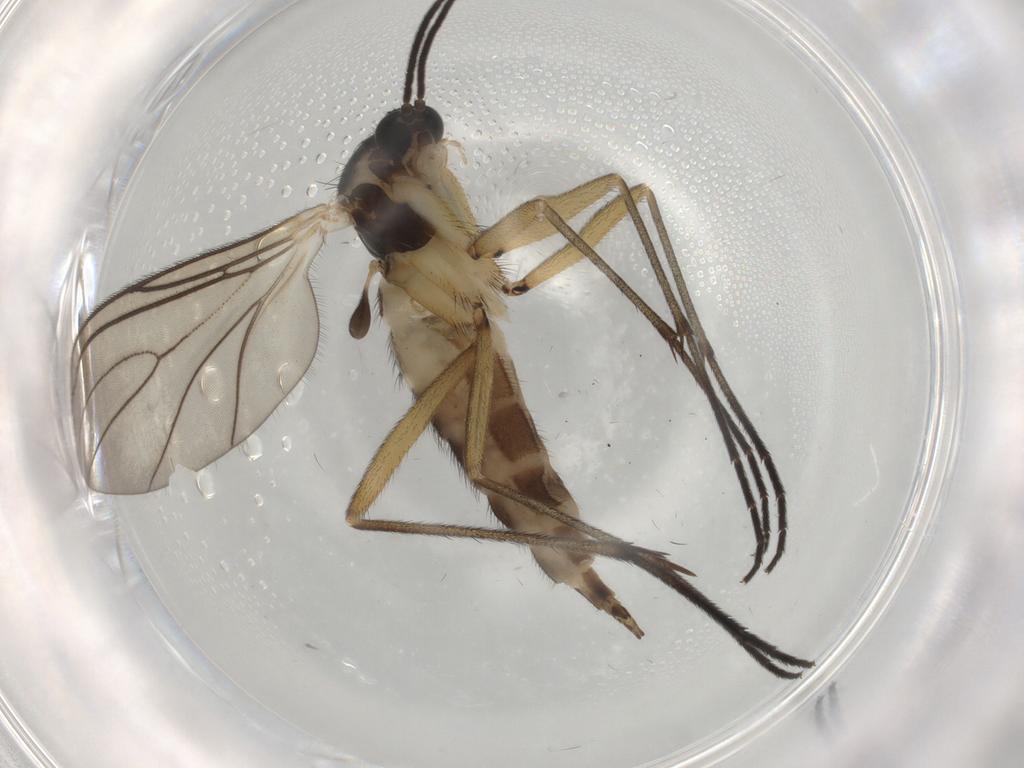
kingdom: Animalia
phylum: Arthropoda
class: Insecta
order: Diptera
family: Sciaridae
